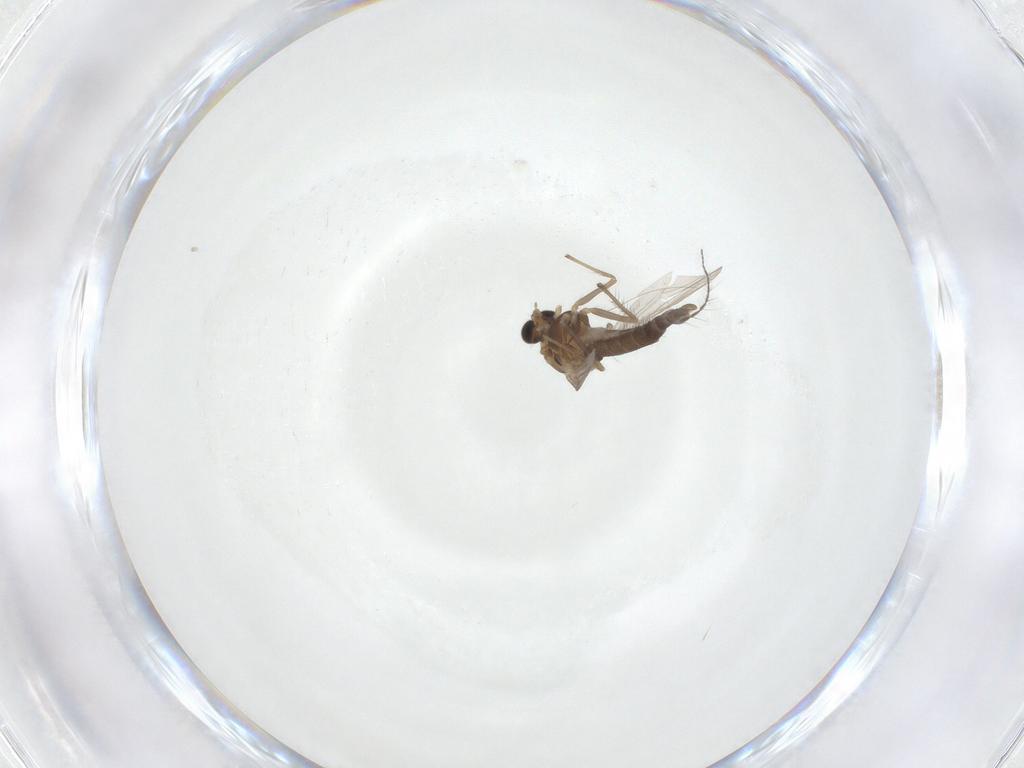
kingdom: Animalia
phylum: Arthropoda
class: Insecta
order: Diptera
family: Chironomidae
